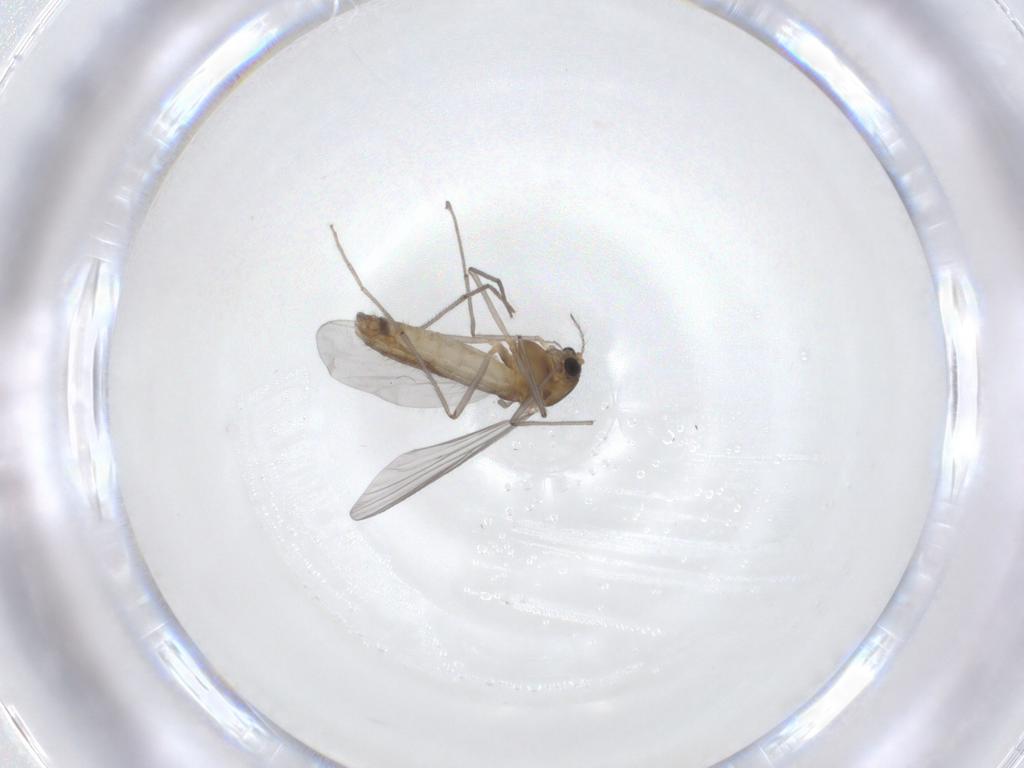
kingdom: Animalia
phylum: Arthropoda
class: Insecta
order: Diptera
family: Chironomidae
